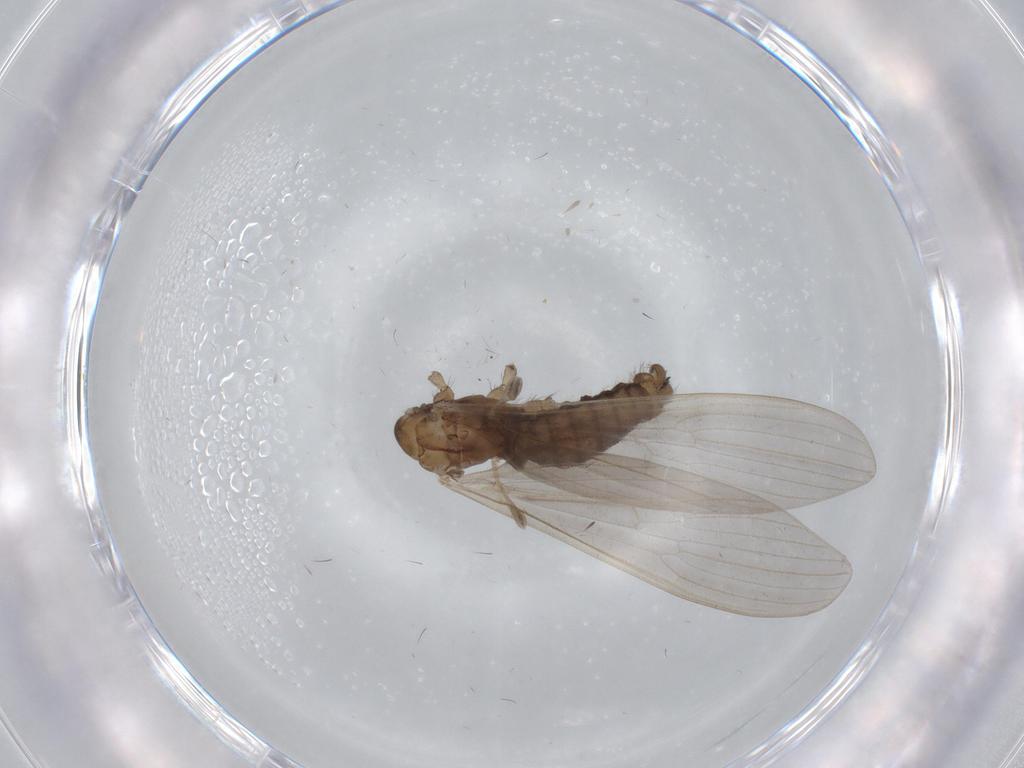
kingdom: Animalia
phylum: Arthropoda
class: Insecta
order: Diptera
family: Limoniidae
